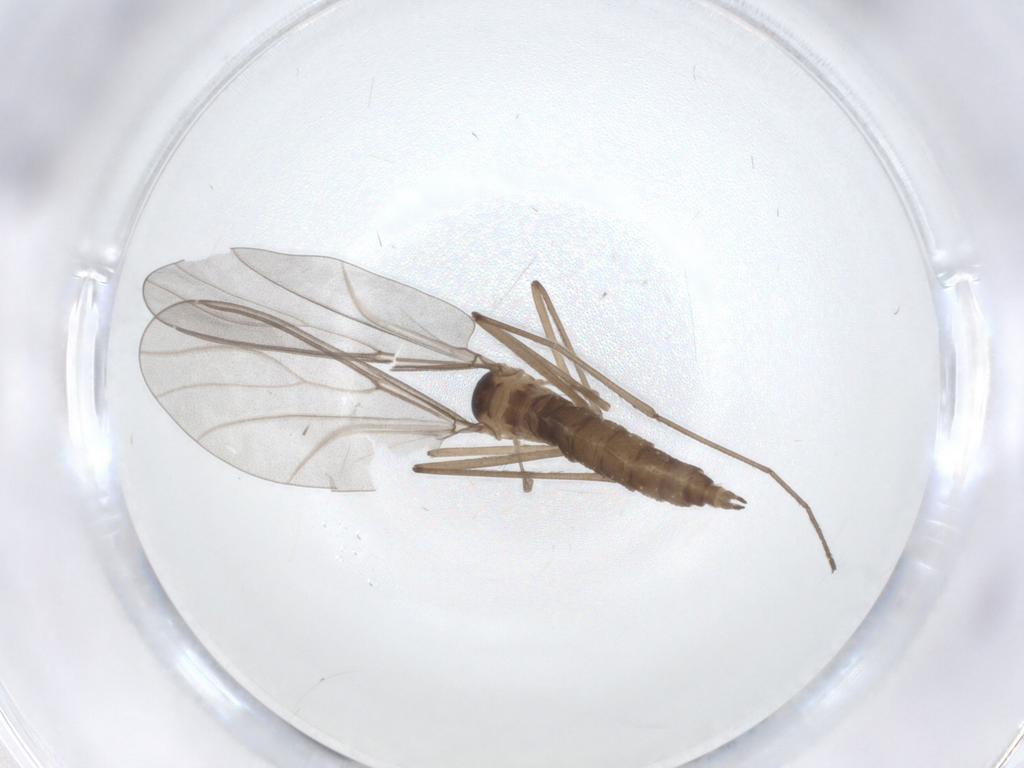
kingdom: Animalia
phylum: Arthropoda
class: Insecta
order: Diptera
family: Cecidomyiidae
